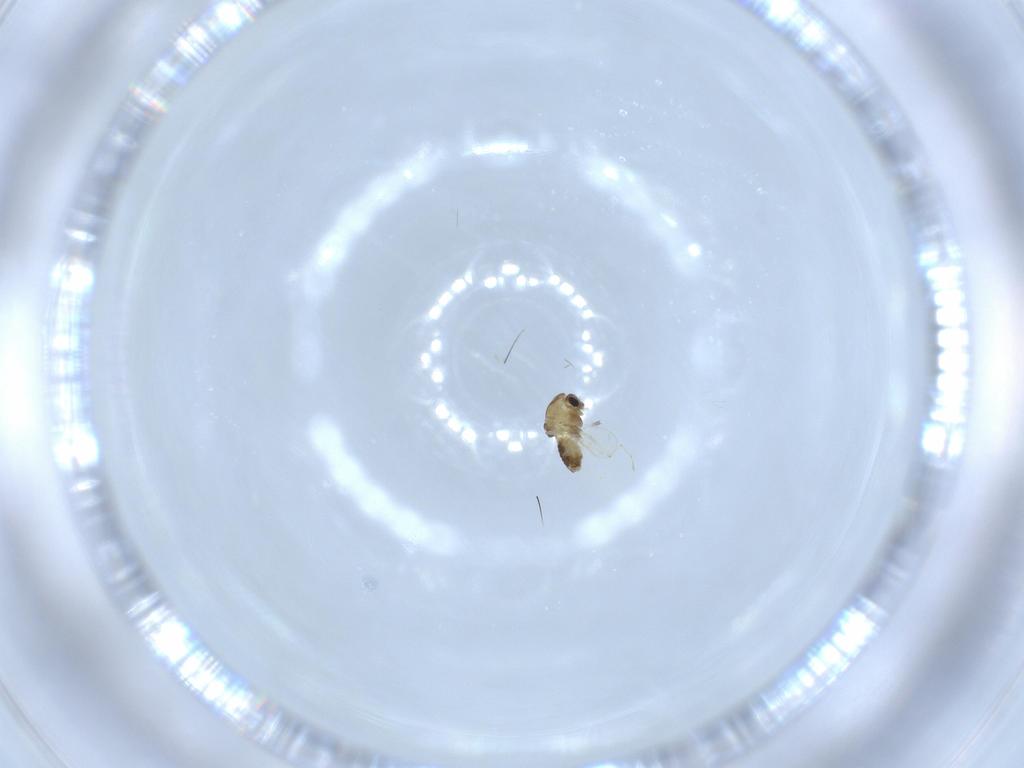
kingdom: Animalia
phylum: Arthropoda
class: Insecta
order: Diptera
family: Chironomidae
